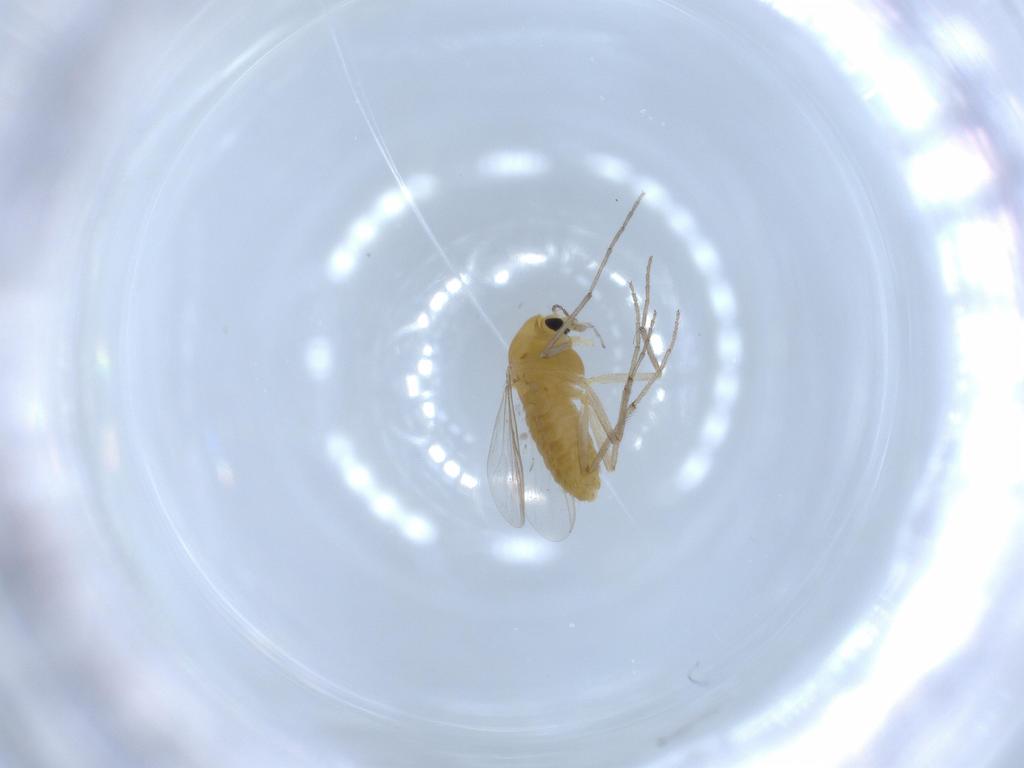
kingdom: Animalia
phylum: Arthropoda
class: Insecta
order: Diptera
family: Chironomidae
